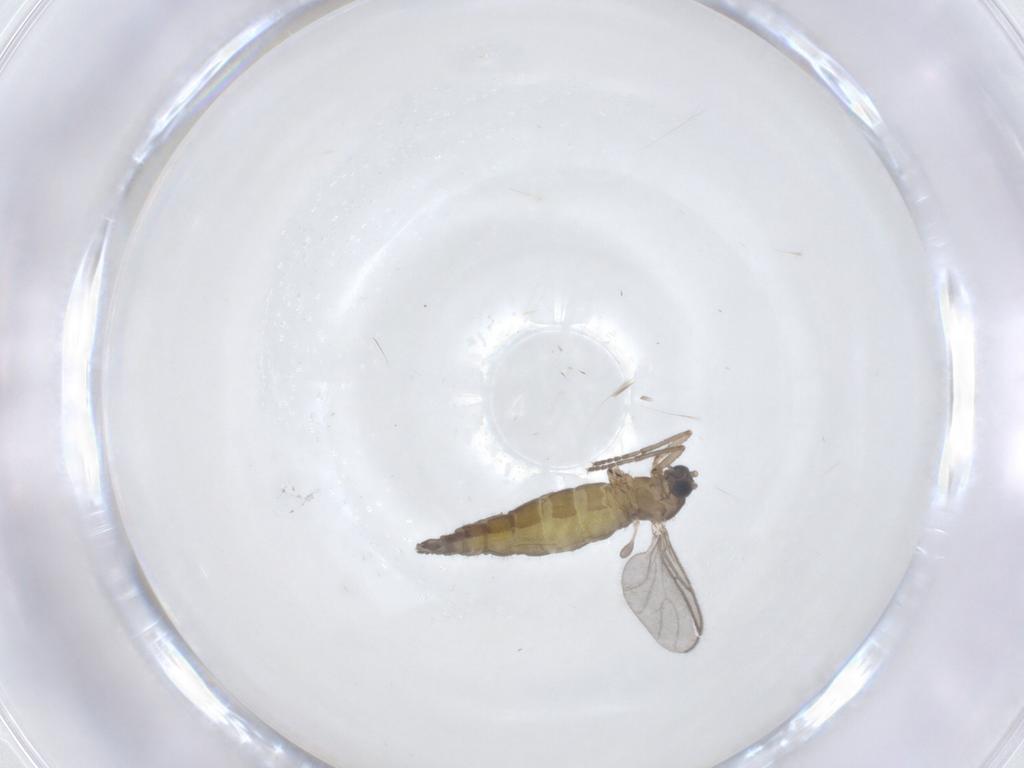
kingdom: Animalia
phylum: Arthropoda
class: Insecta
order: Diptera
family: Sciaridae
